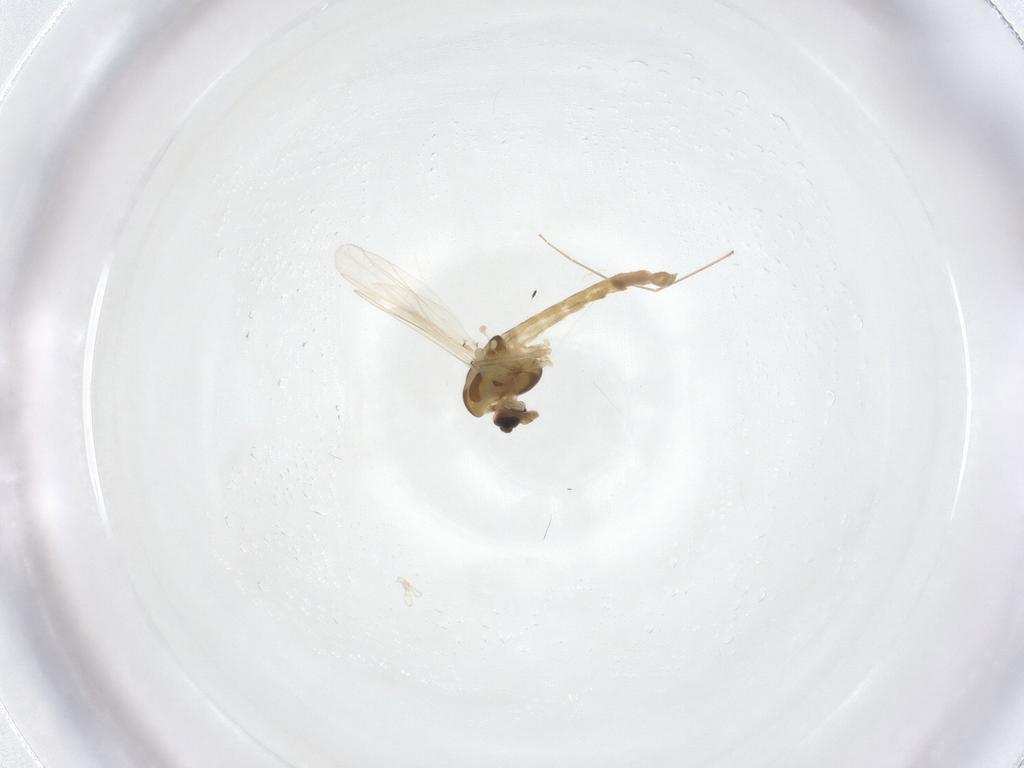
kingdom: Animalia
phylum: Arthropoda
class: Insecta
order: Diptera
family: Chironomidae
